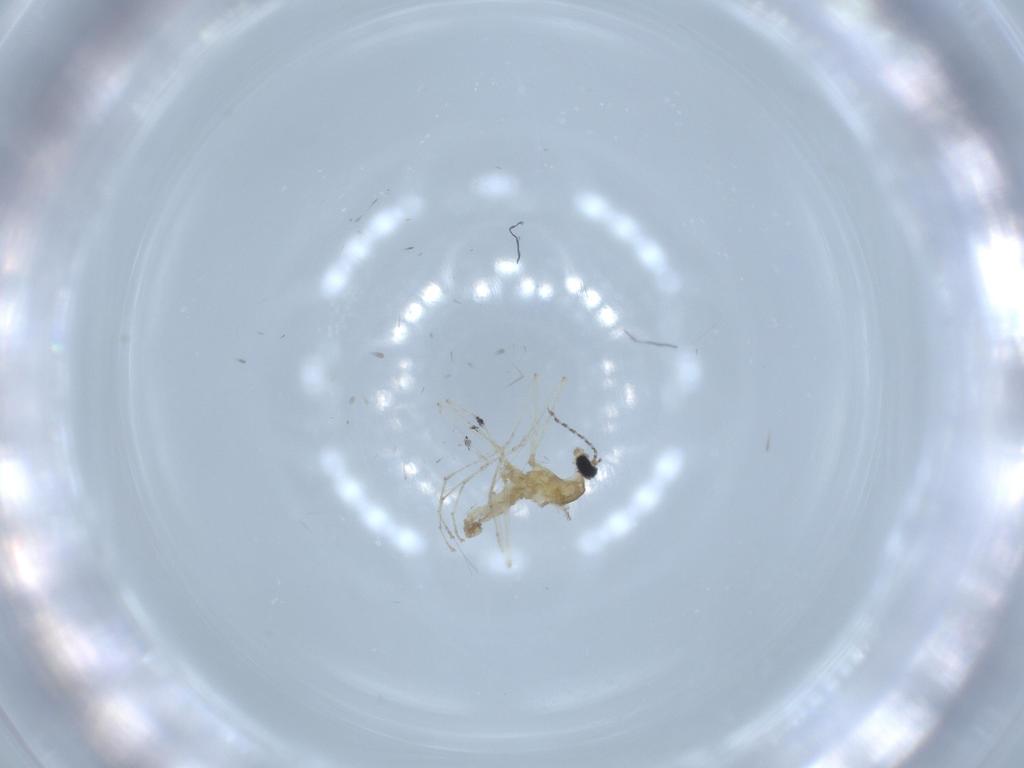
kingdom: Animalia
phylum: Arthropoda
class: Insecta
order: Diptera
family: Cecidomyiidae
